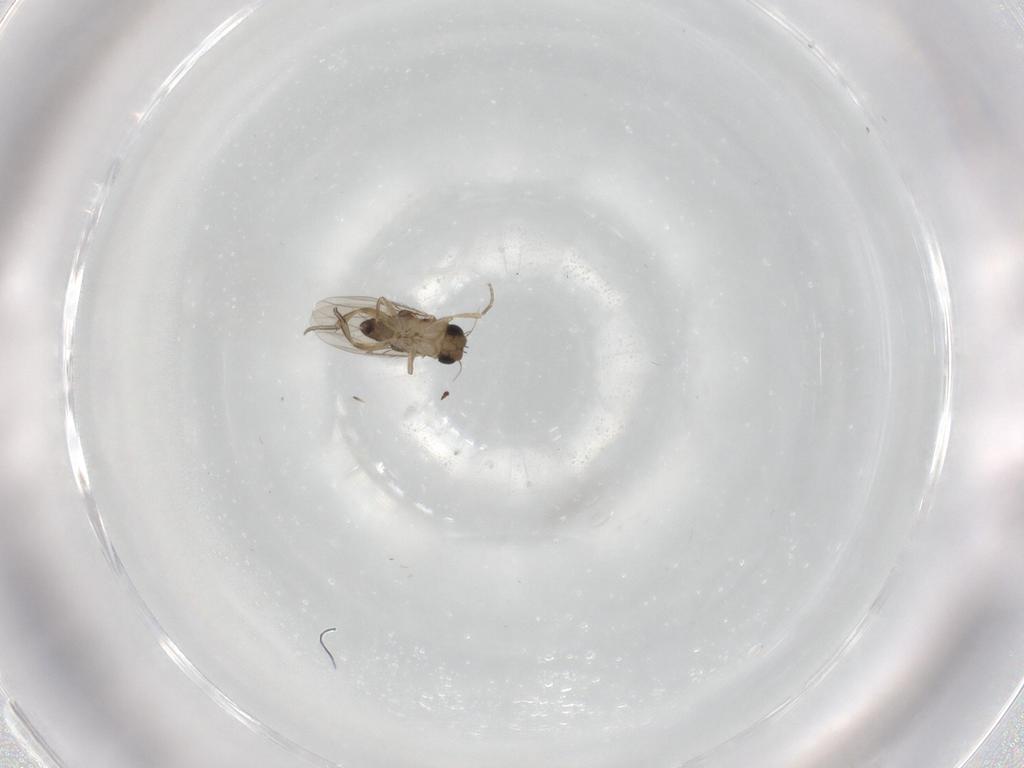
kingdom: Animalia
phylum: Arthropoda
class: Insecta
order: Diptera
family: Phoridae
